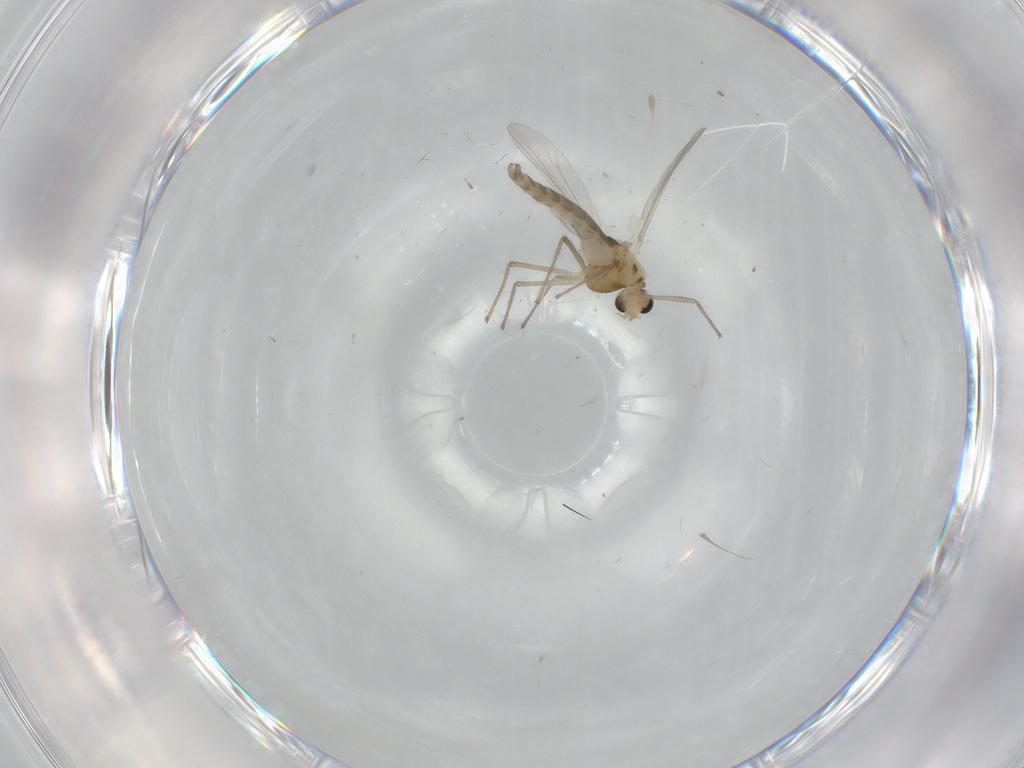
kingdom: Animalia
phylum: Arthropoda
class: Insecta
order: Diptera
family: Chironomidae
